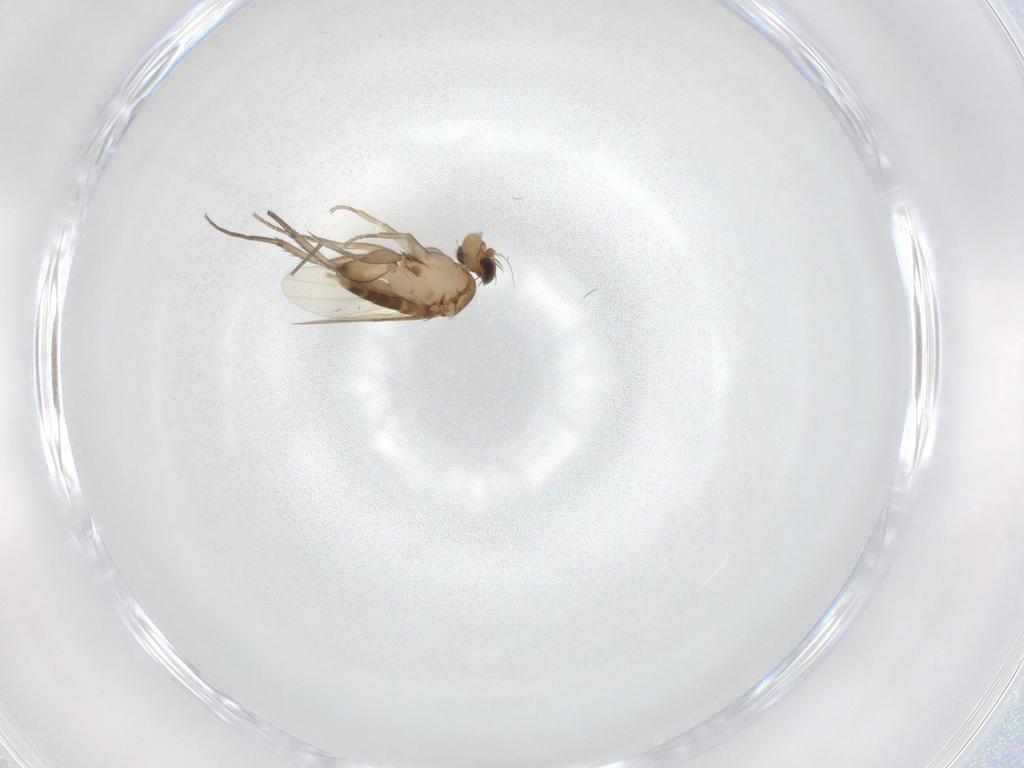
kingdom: Animalia
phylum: Arthropoda
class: Insecta
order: Diptera
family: Phoridae
